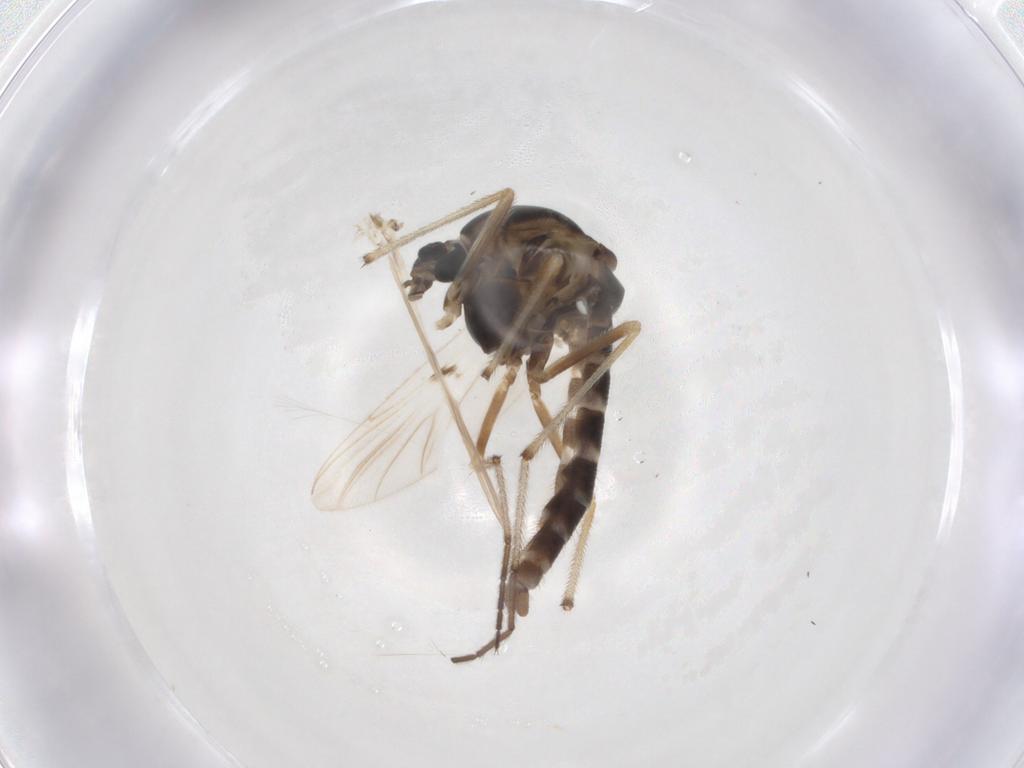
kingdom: Animalia
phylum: Arthropoda
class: Insecta
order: Diptera
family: Chironomidae
